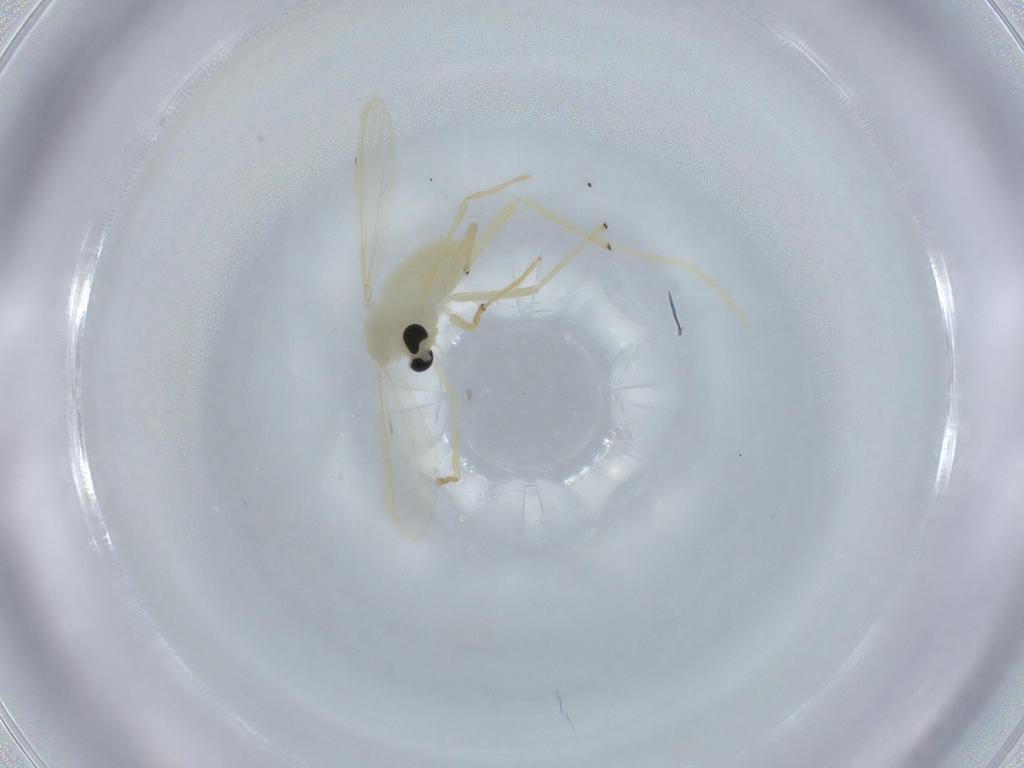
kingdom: Animalia
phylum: Arthropoda
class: Insecta
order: Diptera
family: Chironomidae
